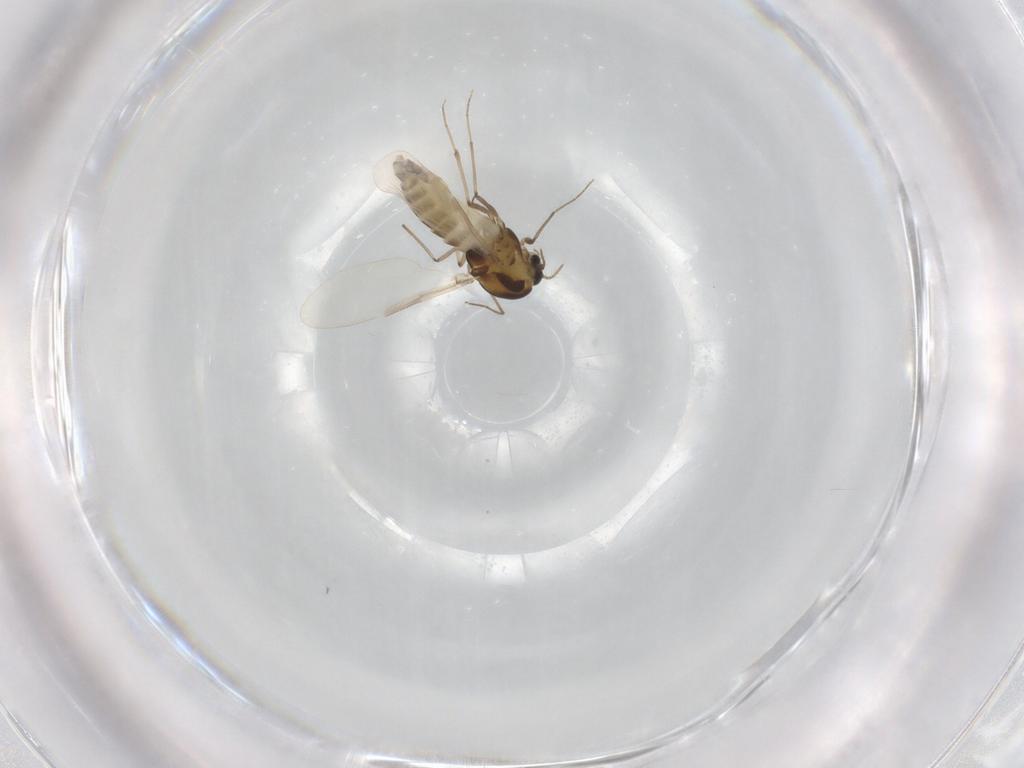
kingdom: Animalia
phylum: Arthropoda
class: Insecta
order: Diptera
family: Chironomidae
